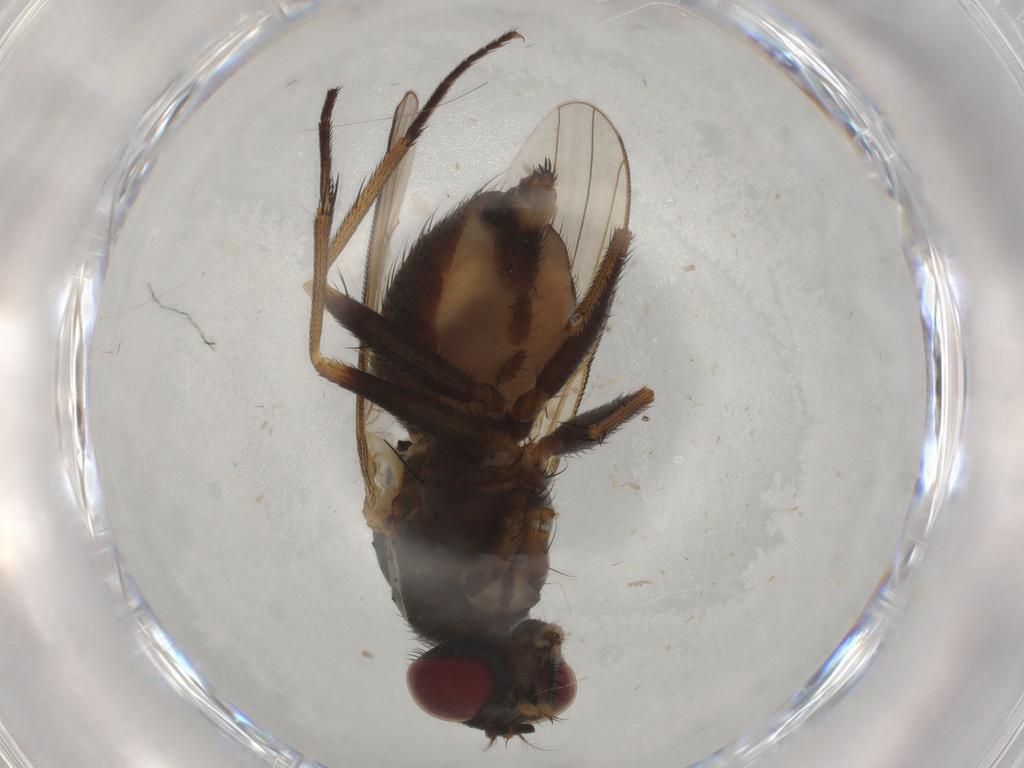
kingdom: Animalia
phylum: Arthropoda
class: Insecta
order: Diptera
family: Muscidae
